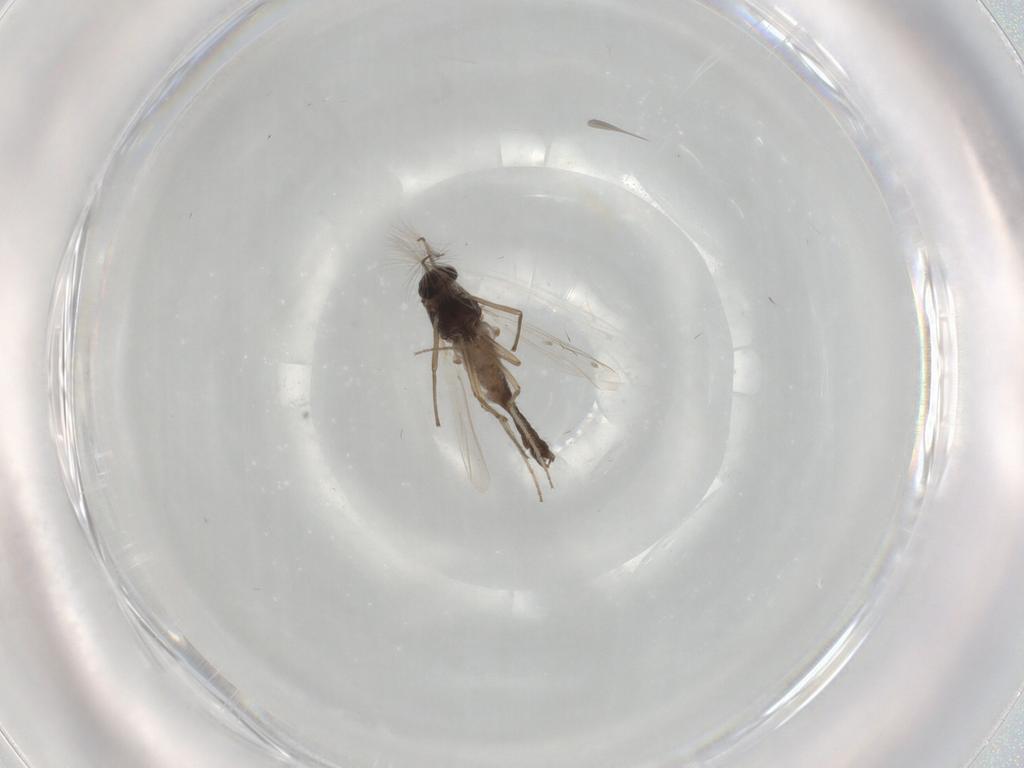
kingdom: Animalia
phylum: Arthropoda
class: Insecta
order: Diptera
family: Chironomidae
